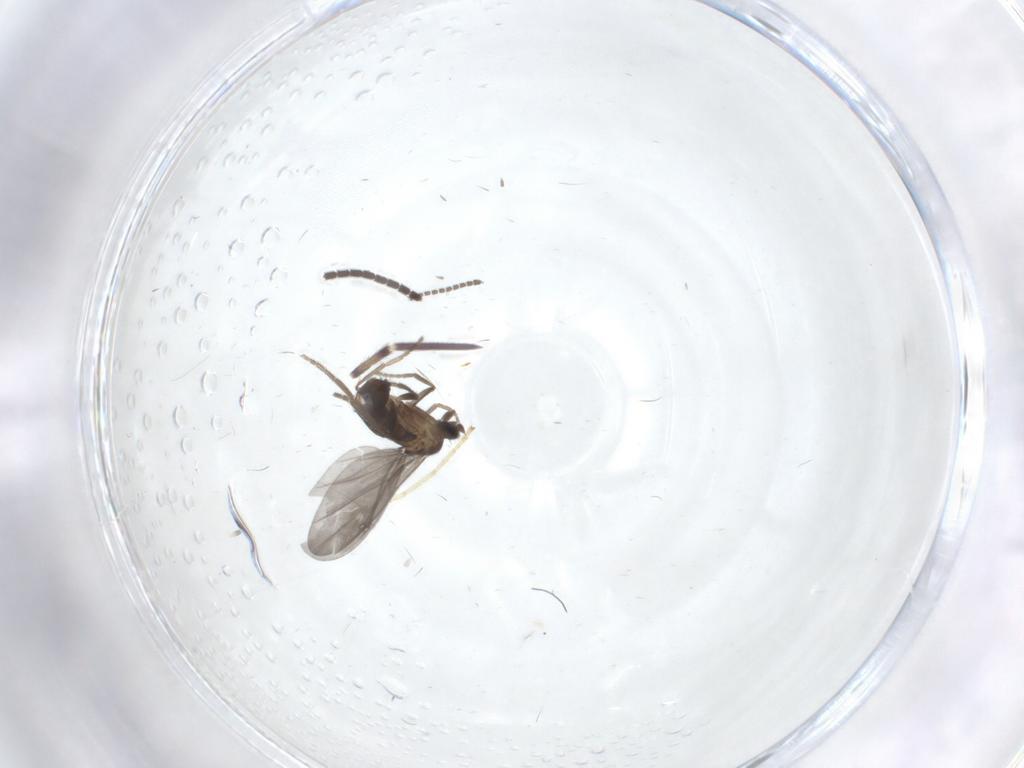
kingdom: Animalia
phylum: Arthropoda
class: Insecta
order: Diptera
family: Phoridae
